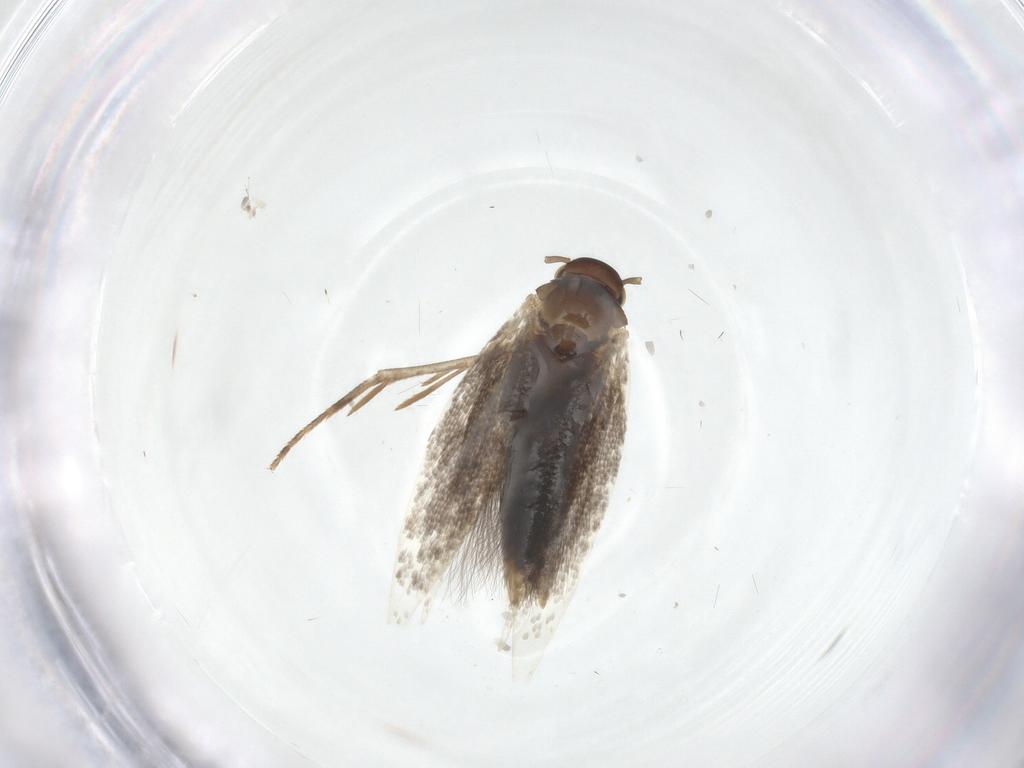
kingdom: Animalia
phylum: Arthropoda
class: Insecta
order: Lepidoptera
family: Elachistidae
